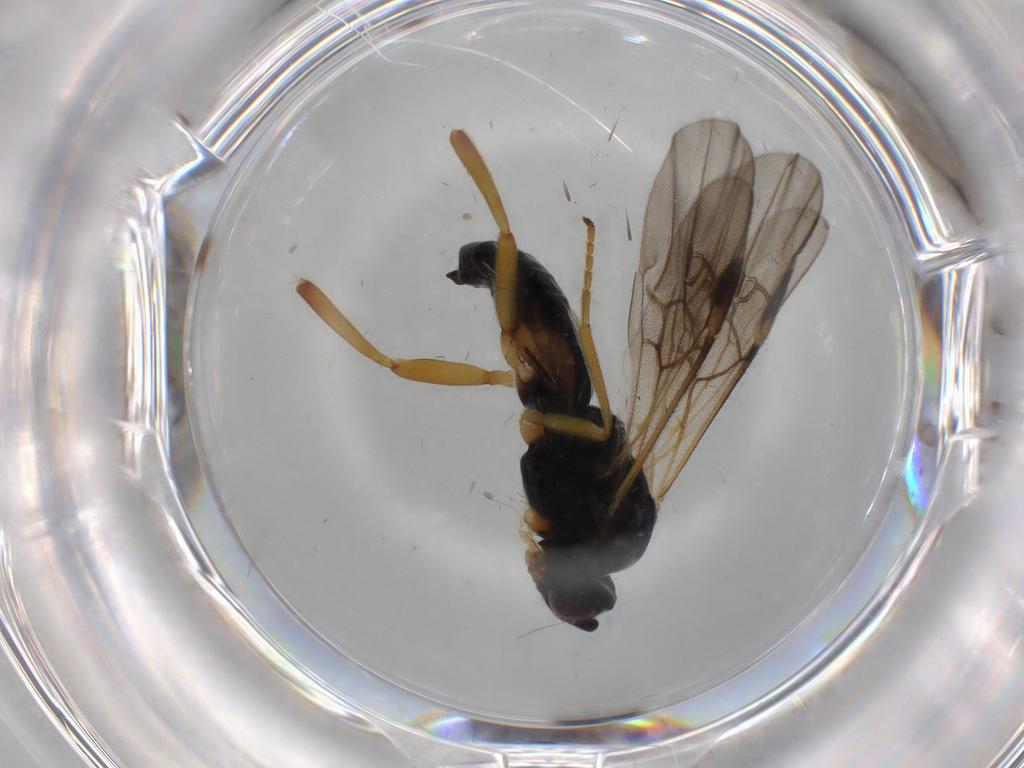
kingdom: Animalia
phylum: Arthropoda
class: Insecta
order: Hymenoptera
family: Braconidae
